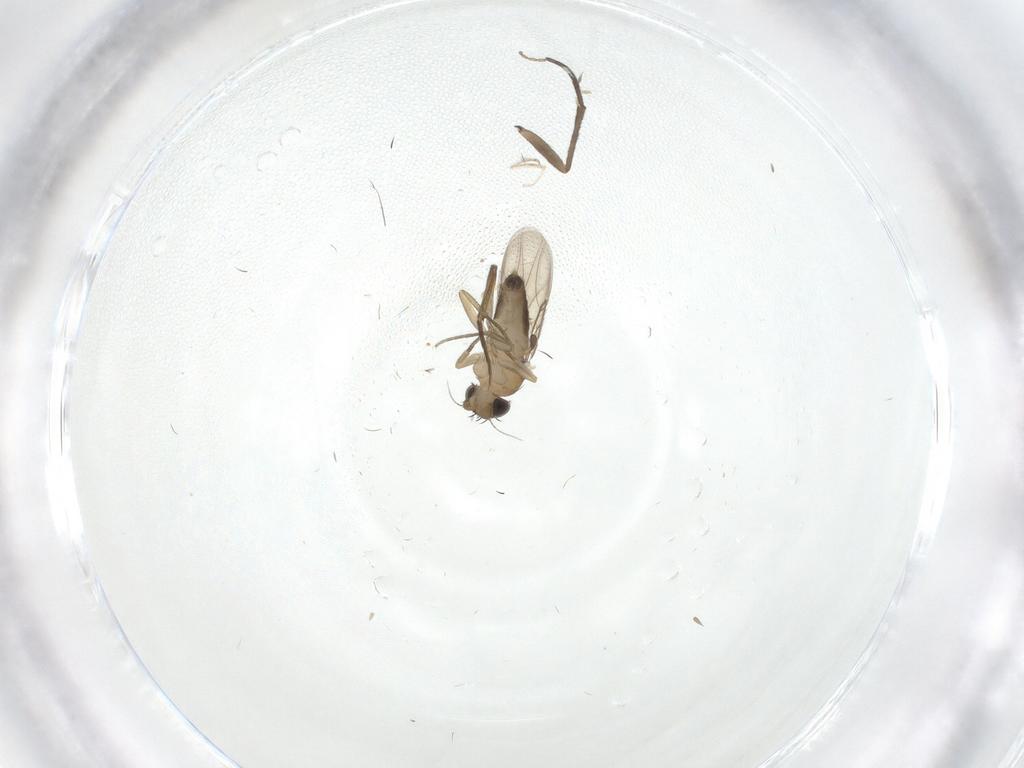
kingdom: Animalia
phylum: Arthropoda
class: Insecta
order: Diptera
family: Phoridae
